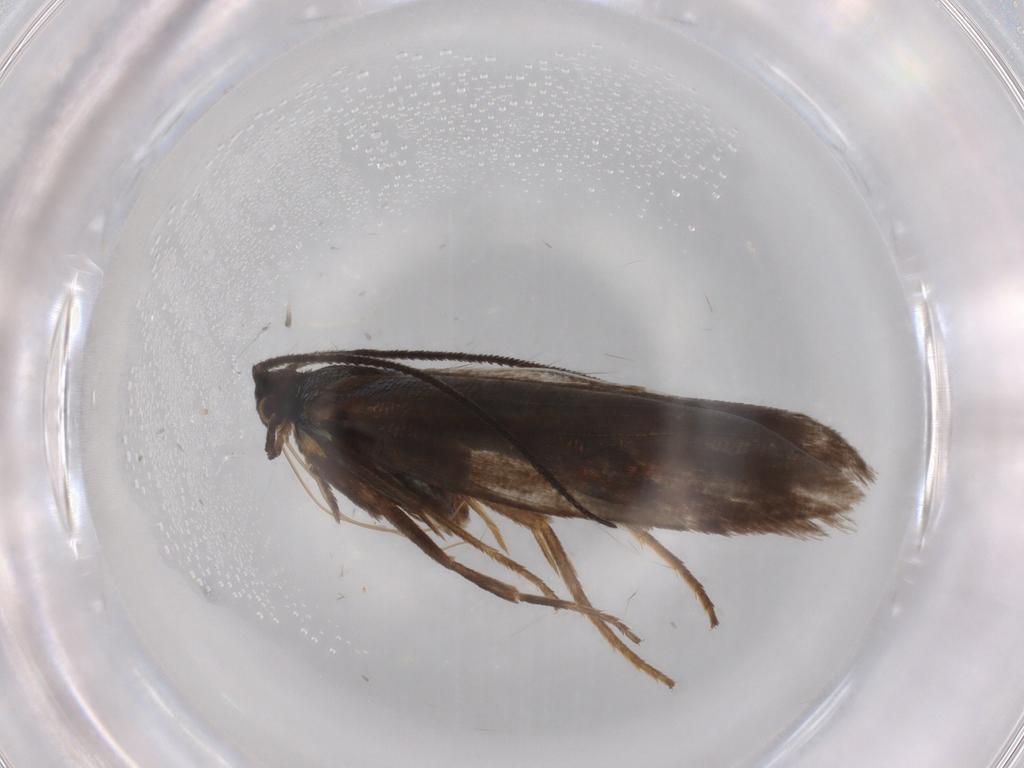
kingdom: Animalia
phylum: Arthropoda
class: Insecta
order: Lepidoptera
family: Argyresthiidae
